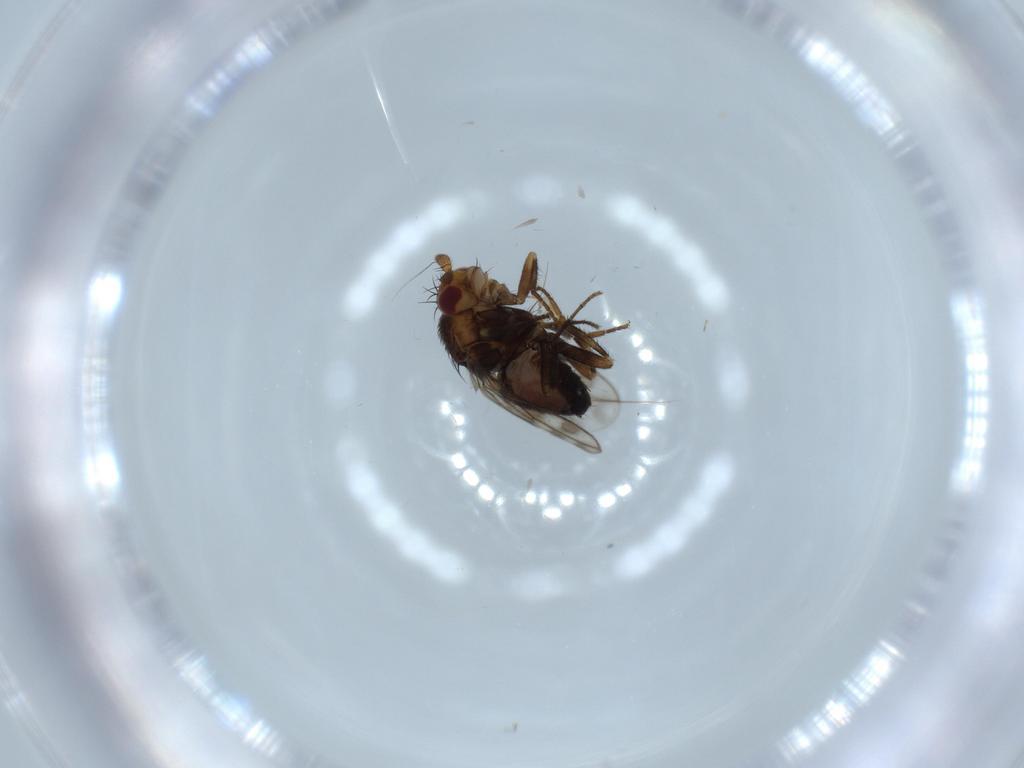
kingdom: Animalia
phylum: Arthropoda
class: Insecta
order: Diptera
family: Sphaeroceridae
